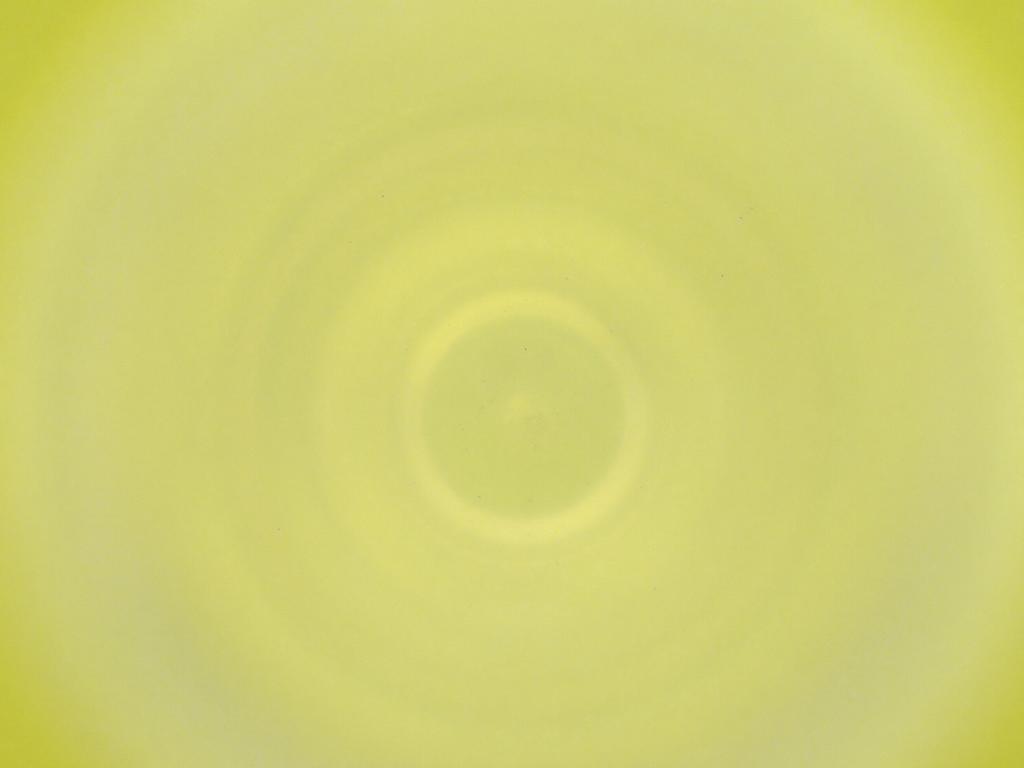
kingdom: Animalia
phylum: Arthropoda
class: Insecta
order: Diptera
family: Cecidomyiidae
